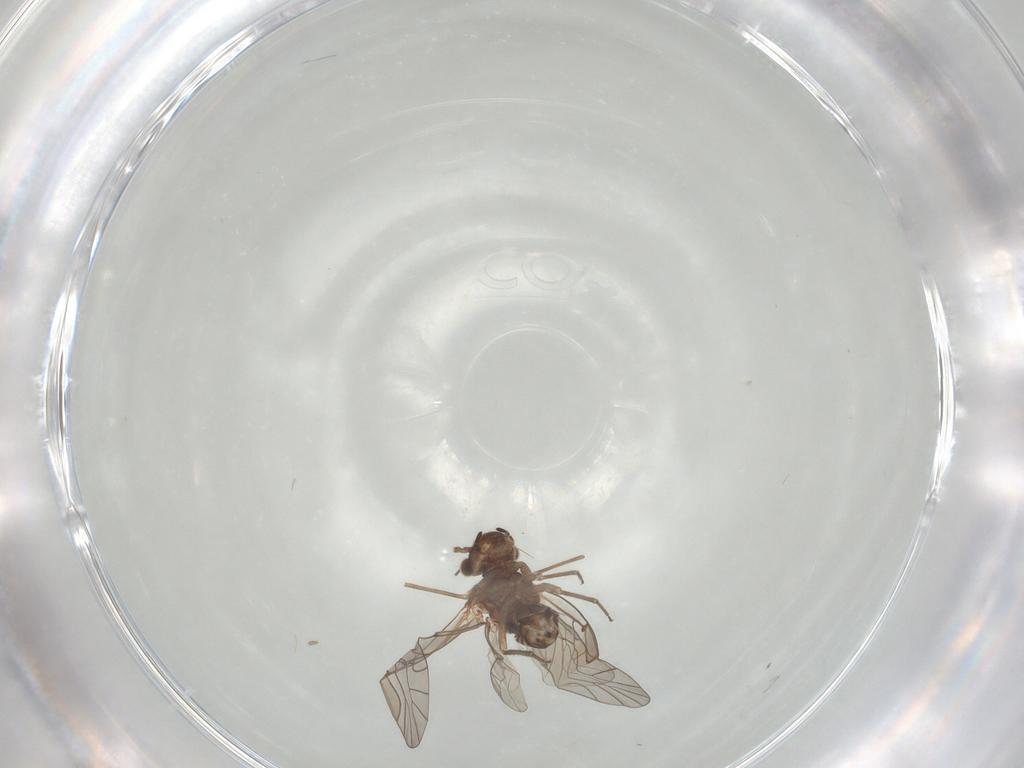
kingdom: Animalia
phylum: Arthropoda
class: Insecta
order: Psocodea
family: Lachesillidae
